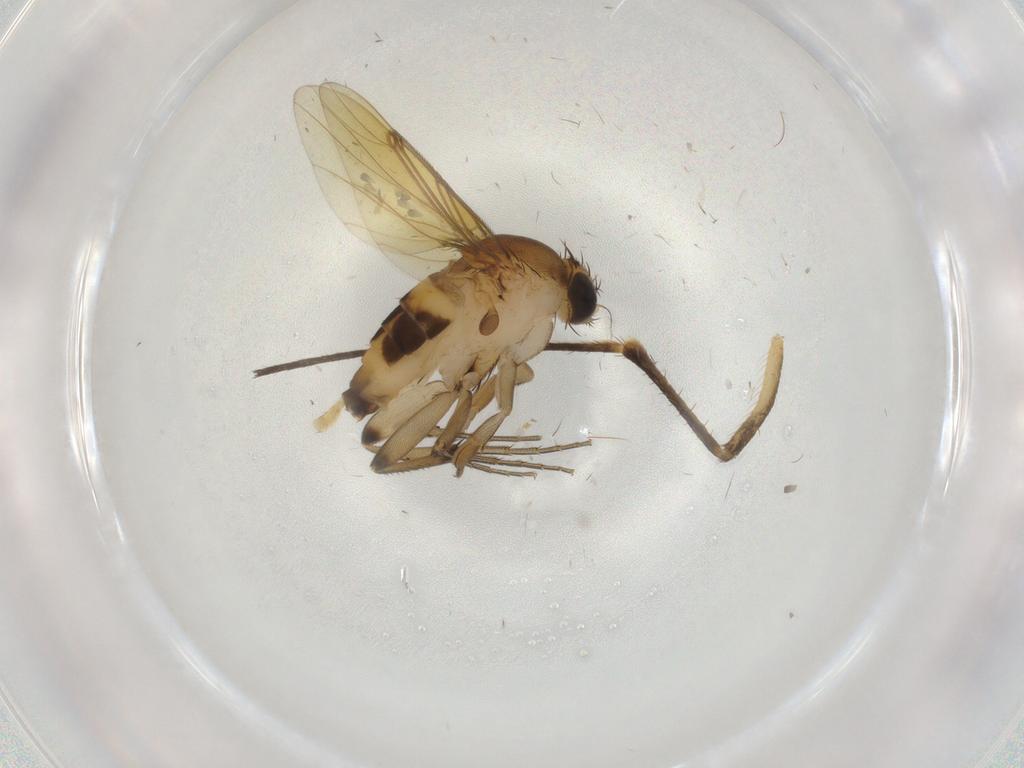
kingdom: Animalia
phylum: Arthropoda
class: Insecta
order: Diptera
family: Phoridae
